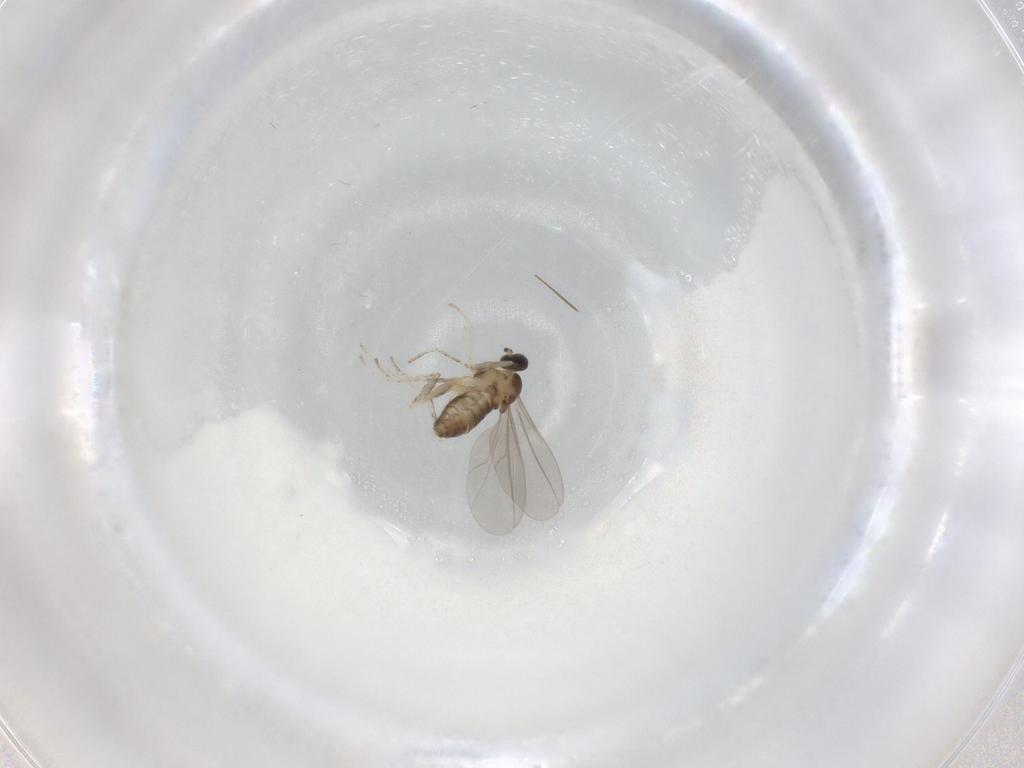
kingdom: Animalia
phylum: Arthropoda
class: Insecta
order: Diptera
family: Cecidomyiidae
